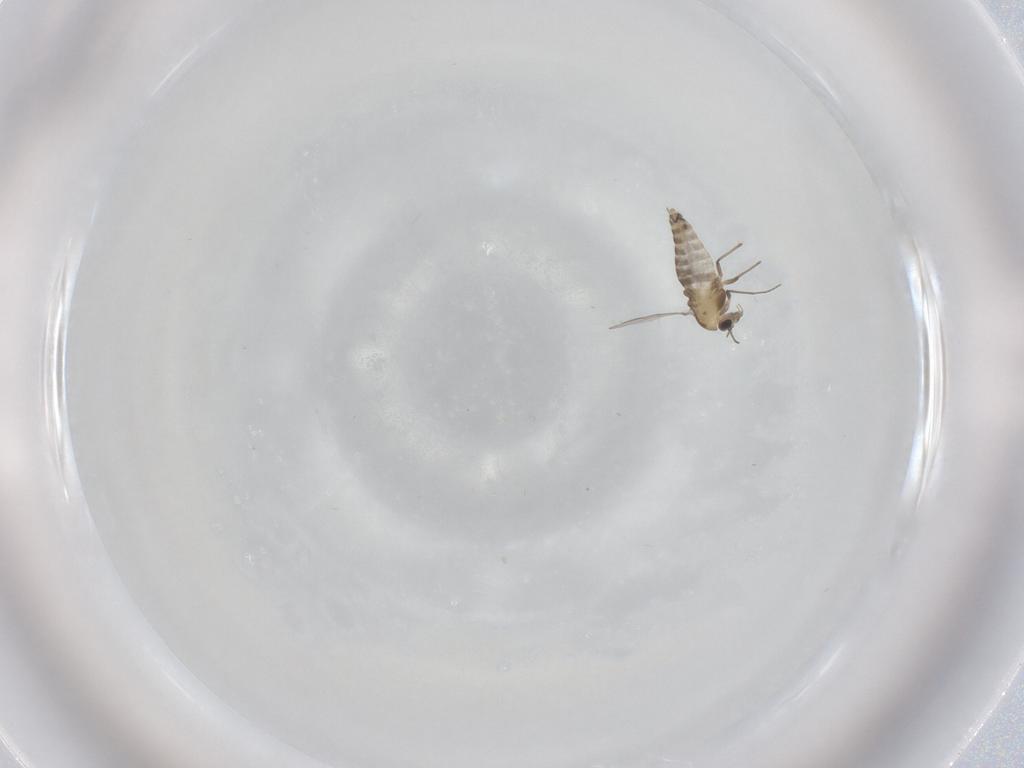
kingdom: Animalia
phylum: Arthropoda
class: Insecta
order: Diptera
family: Chironomidae
